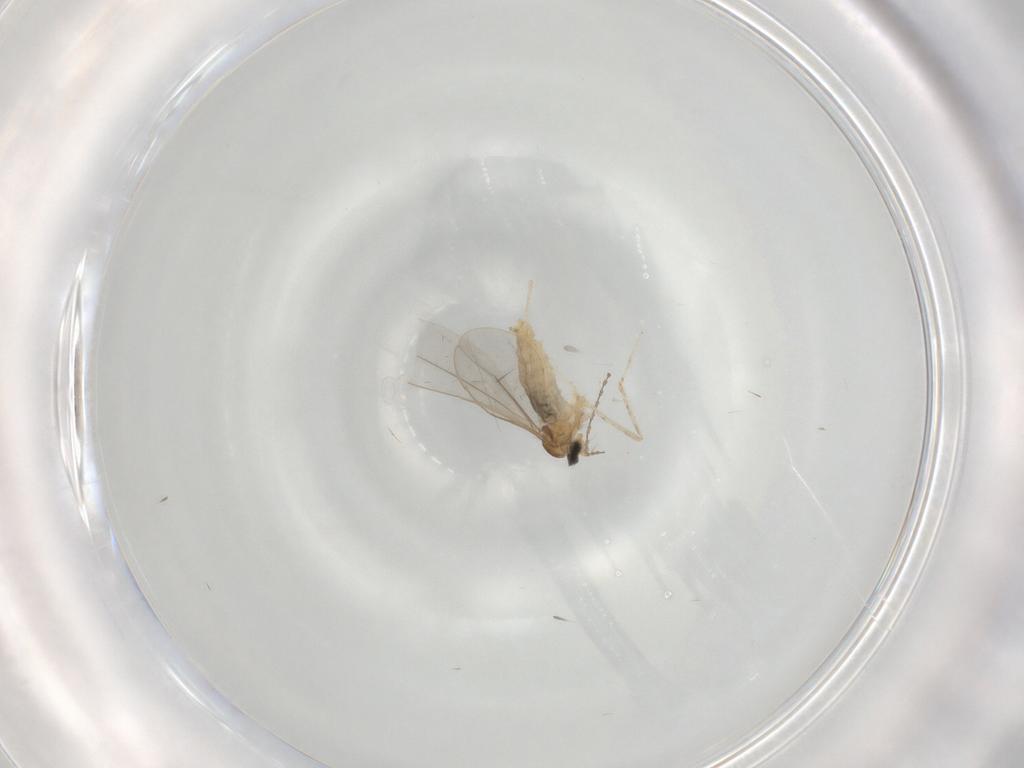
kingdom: Animalia
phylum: Arthropoda
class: Insecta
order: Diptera
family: Cecidomyiidae
